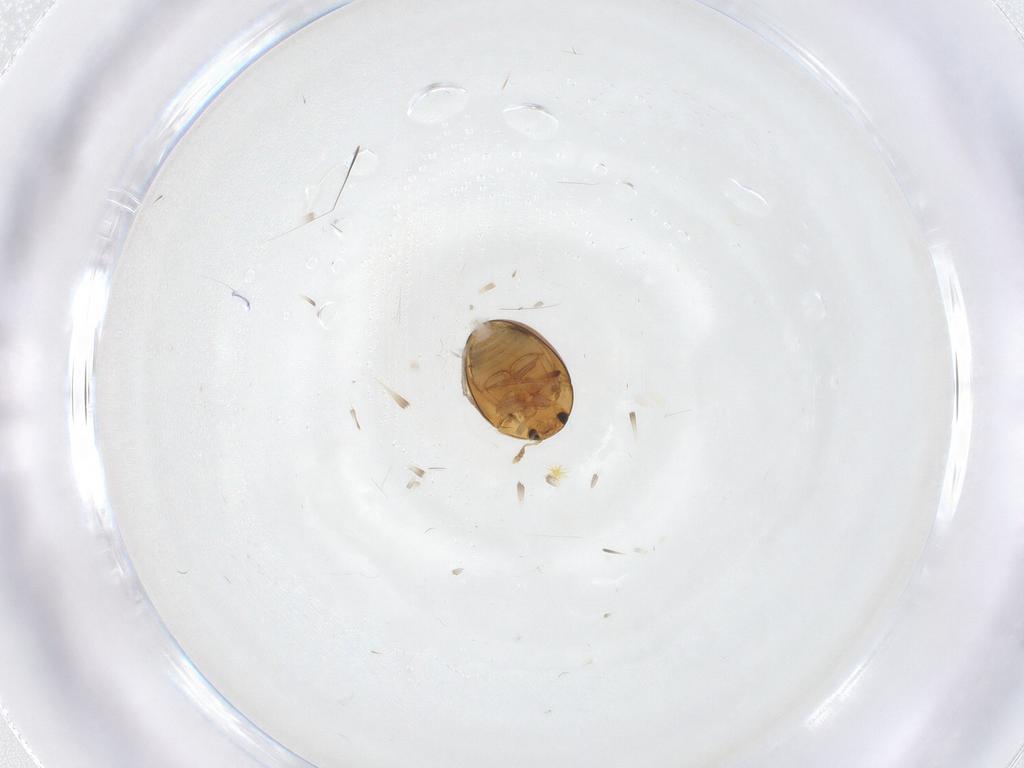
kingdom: Animalia
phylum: Arthropoda
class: Insecta
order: Coleoptera
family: Phalacridae
